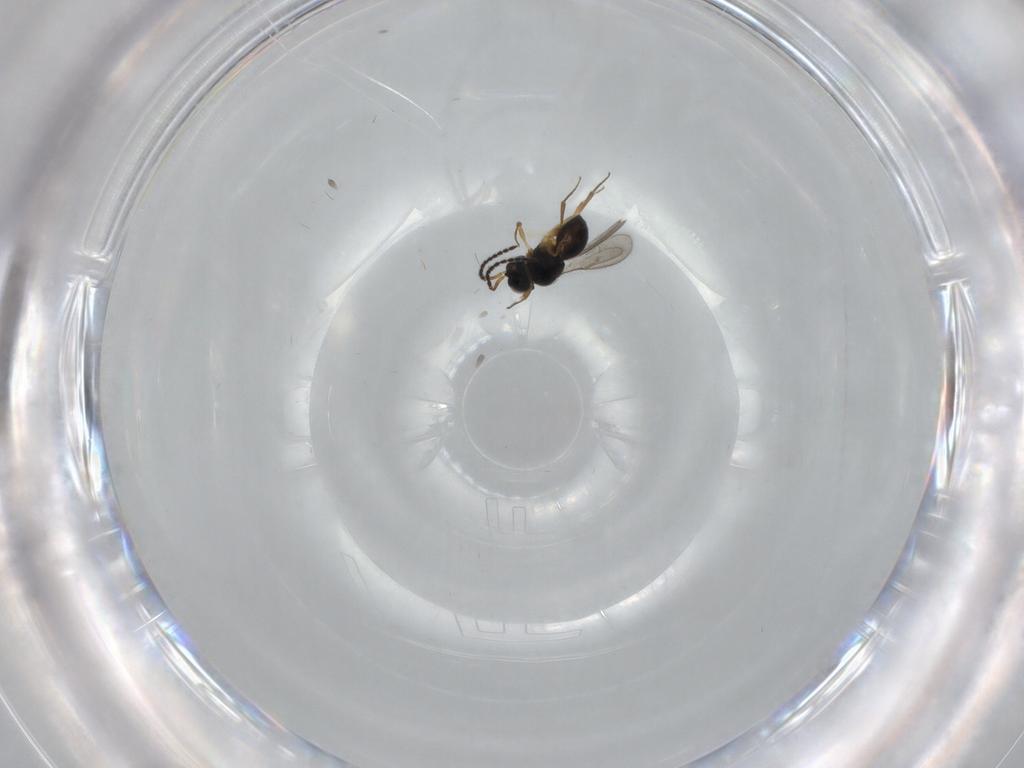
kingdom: Animalia
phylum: Arthropoda
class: Insecta
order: Hymenoptera
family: Scelionidae
